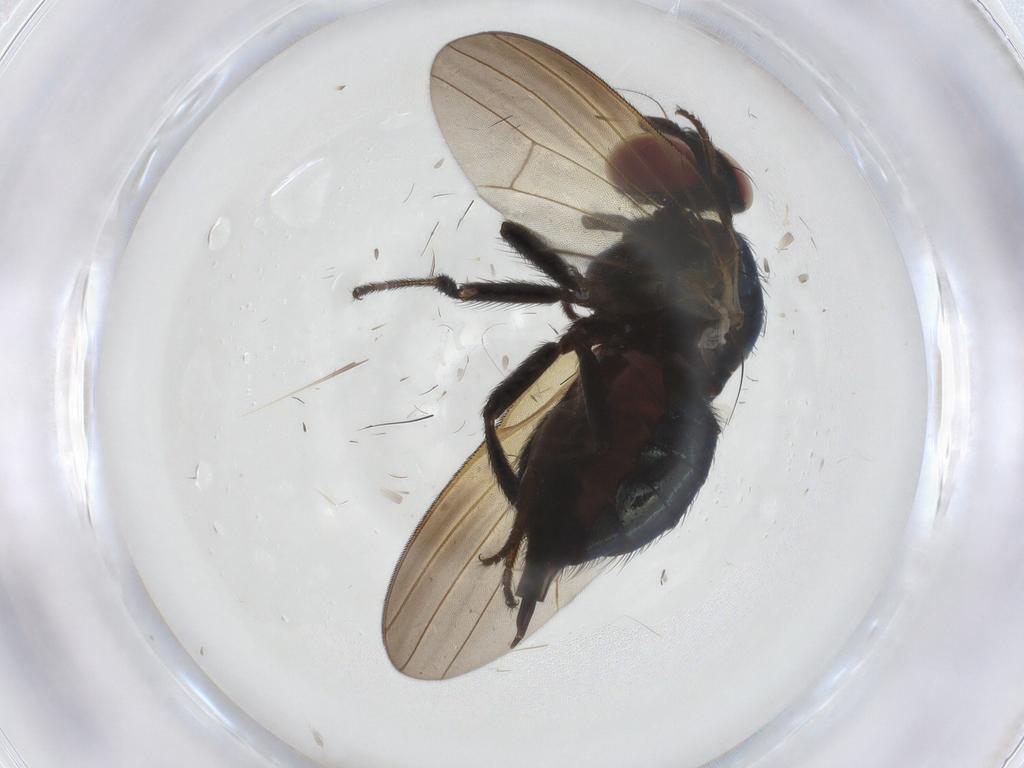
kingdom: Animalia
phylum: Arthropoda
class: Insecta
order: Diptera
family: Lonchaeidae
